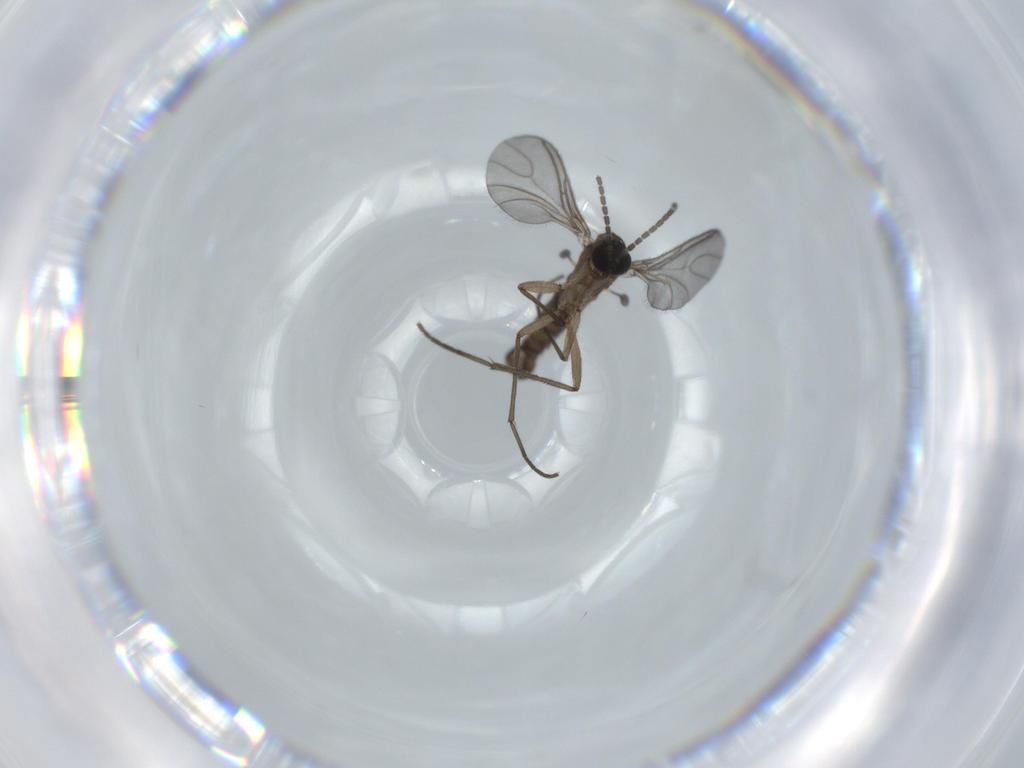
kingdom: Animalia
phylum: Arthropoda
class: Insecta
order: Diptera
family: Sciaridae
